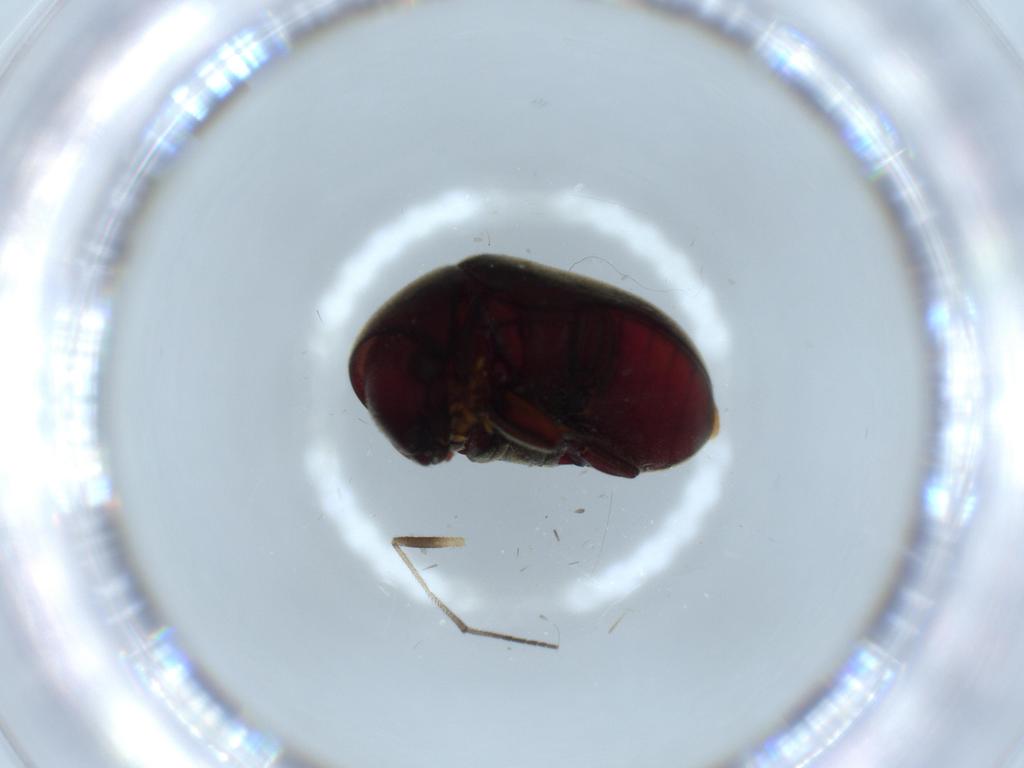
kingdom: Animalia
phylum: Arthropoda
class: Insecta
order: Coleoptera
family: Ptinidae
